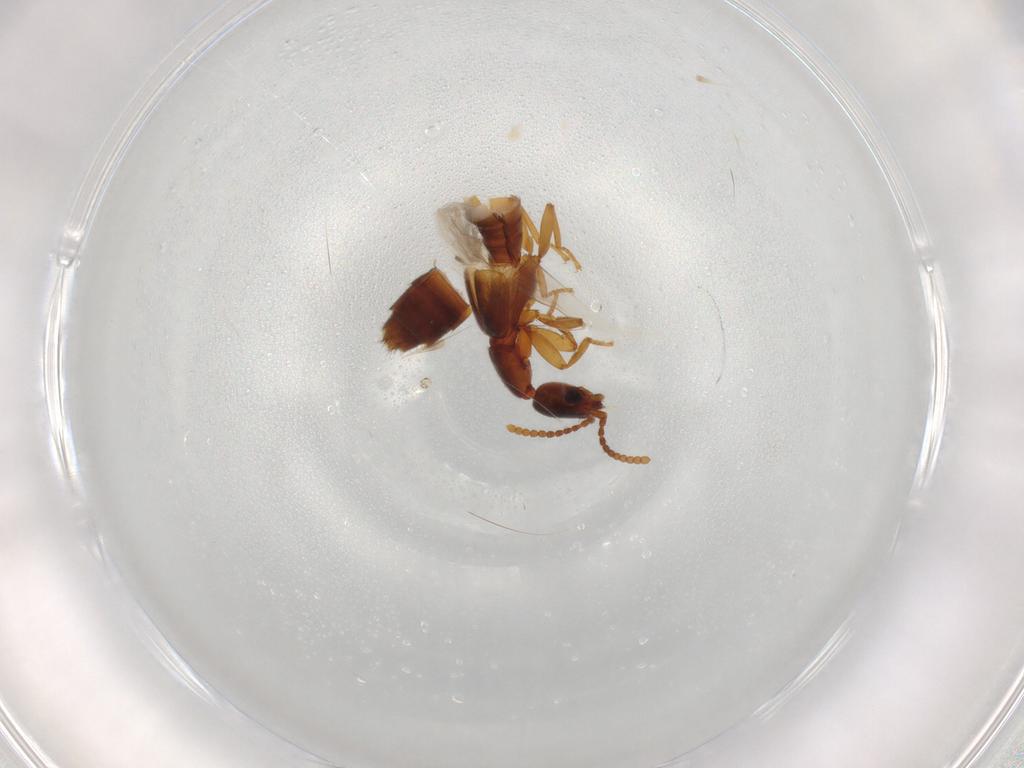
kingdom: Animalia
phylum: Arthropoda
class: Insecta
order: Coleoptera
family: Staphylinidae
